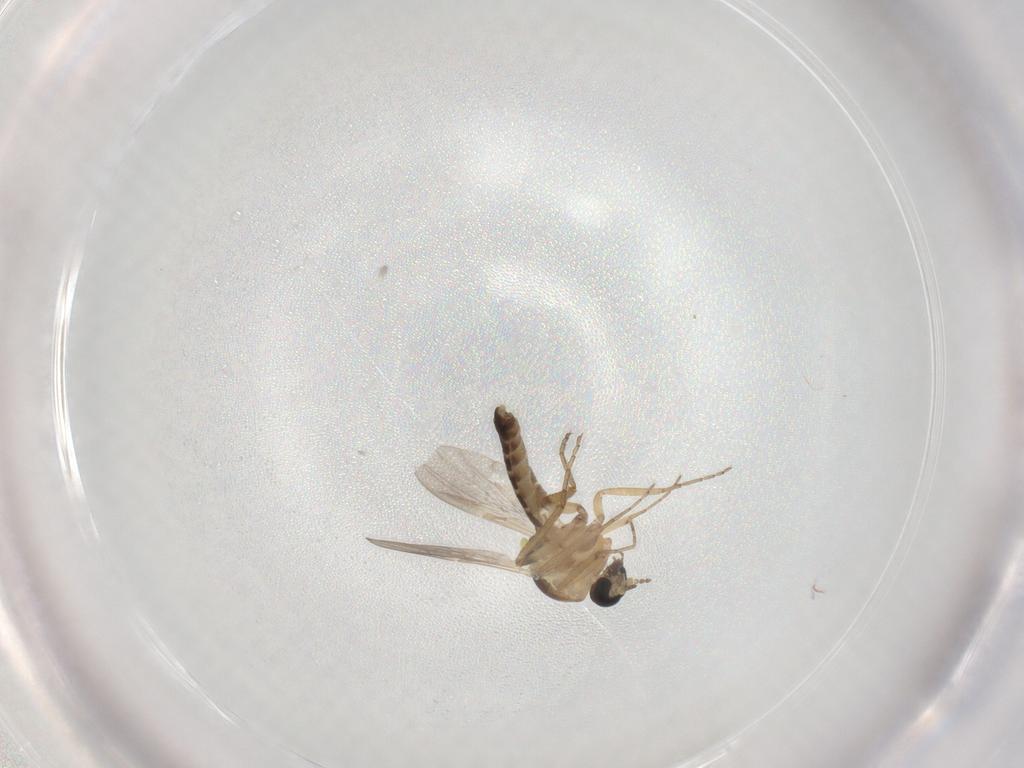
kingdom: Animalia
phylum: Arthropoda
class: Insecta
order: Diptera
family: Ceratopogonidae
